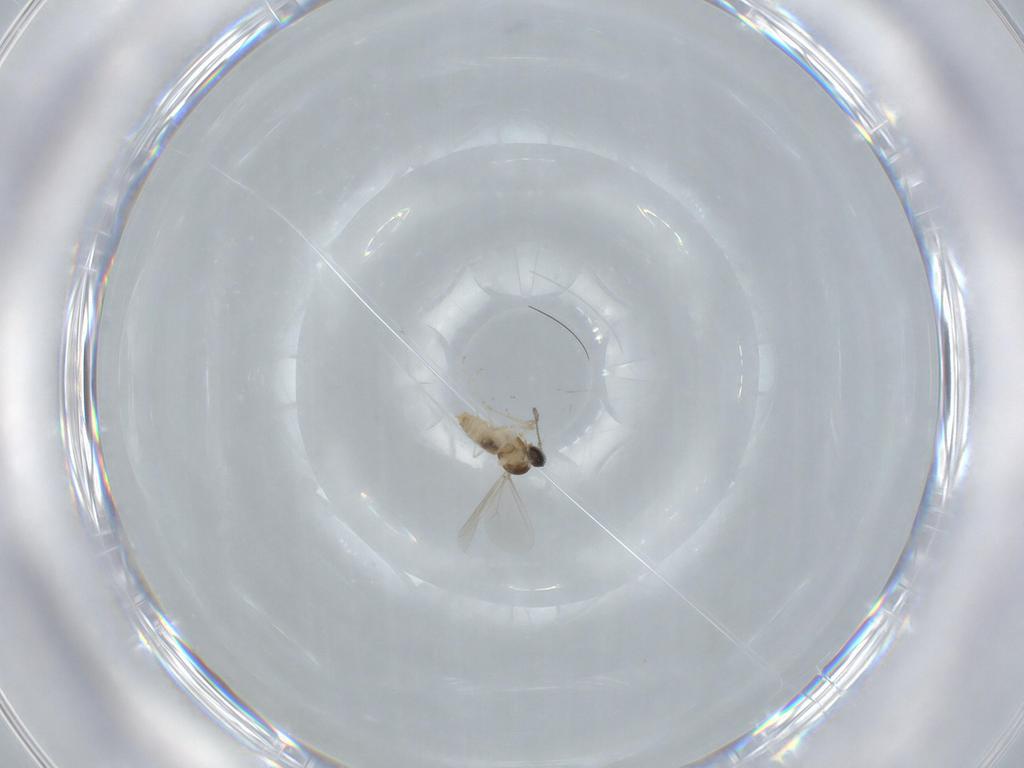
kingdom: Animalia
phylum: Arthropoda
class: Insecta
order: Diptera
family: Cecidomyiidae
